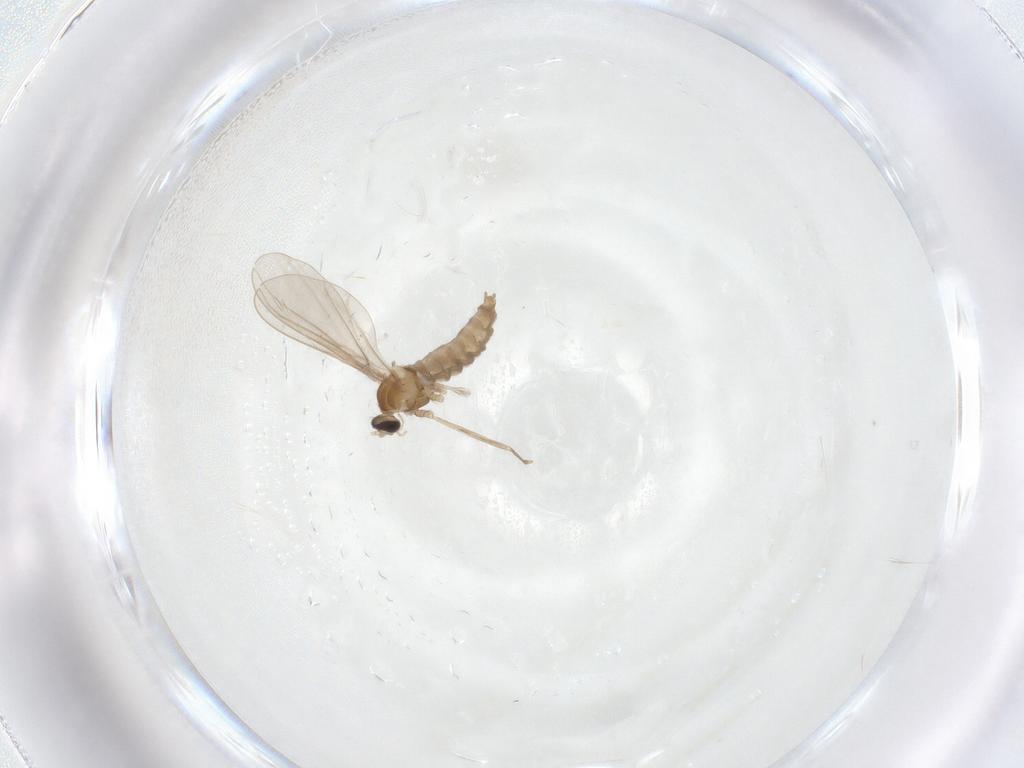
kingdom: Animalia
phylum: Arthropoda
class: Insecta
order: Diptera
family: Cecidomyiidae
